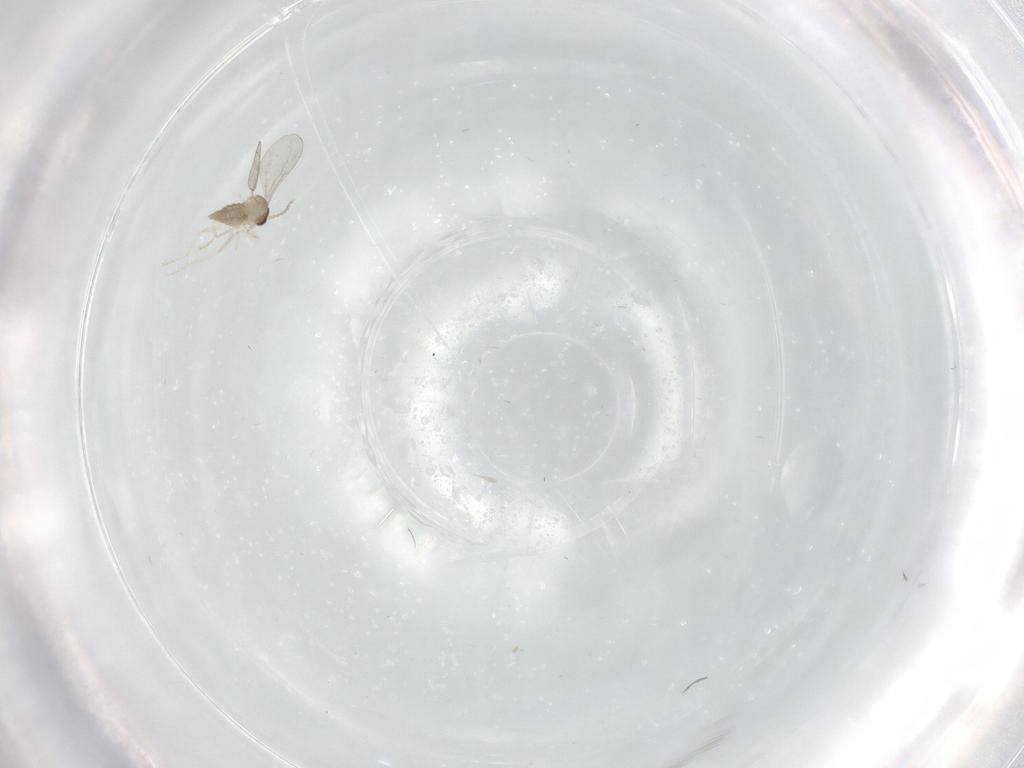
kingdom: Animalia
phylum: Arthropoda
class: Insecta
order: Diptera
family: Cecidomyiidae
